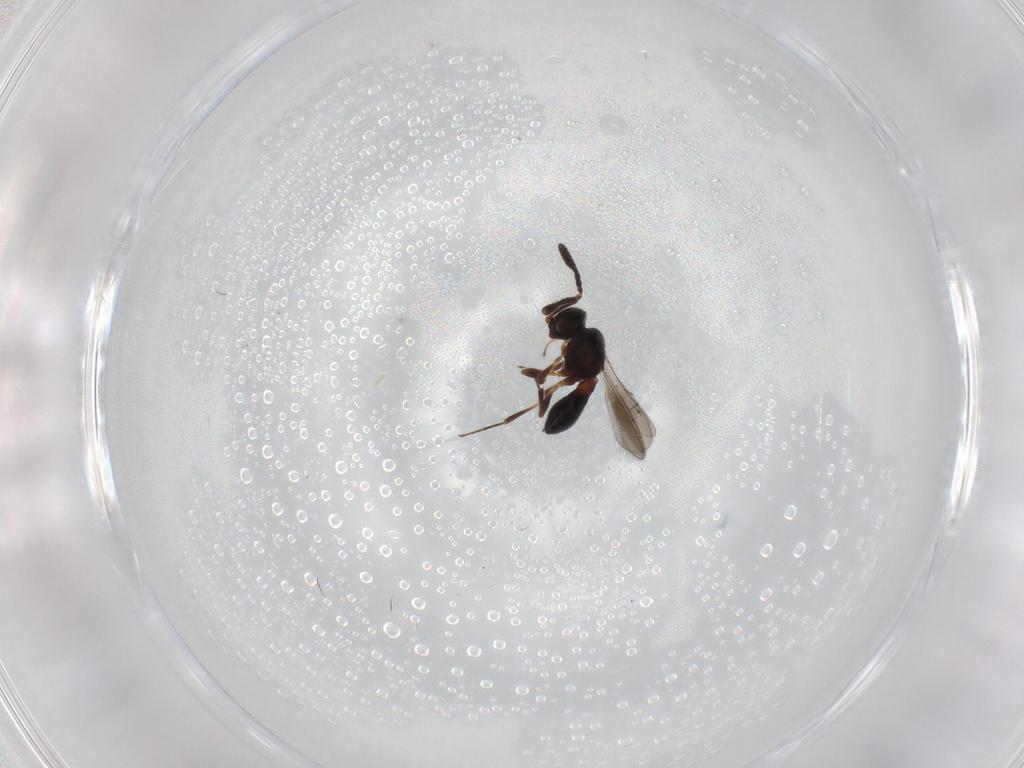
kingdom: Animalia
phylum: Arthropoda
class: Insecta
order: Hymenoptera
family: Scelionidae
